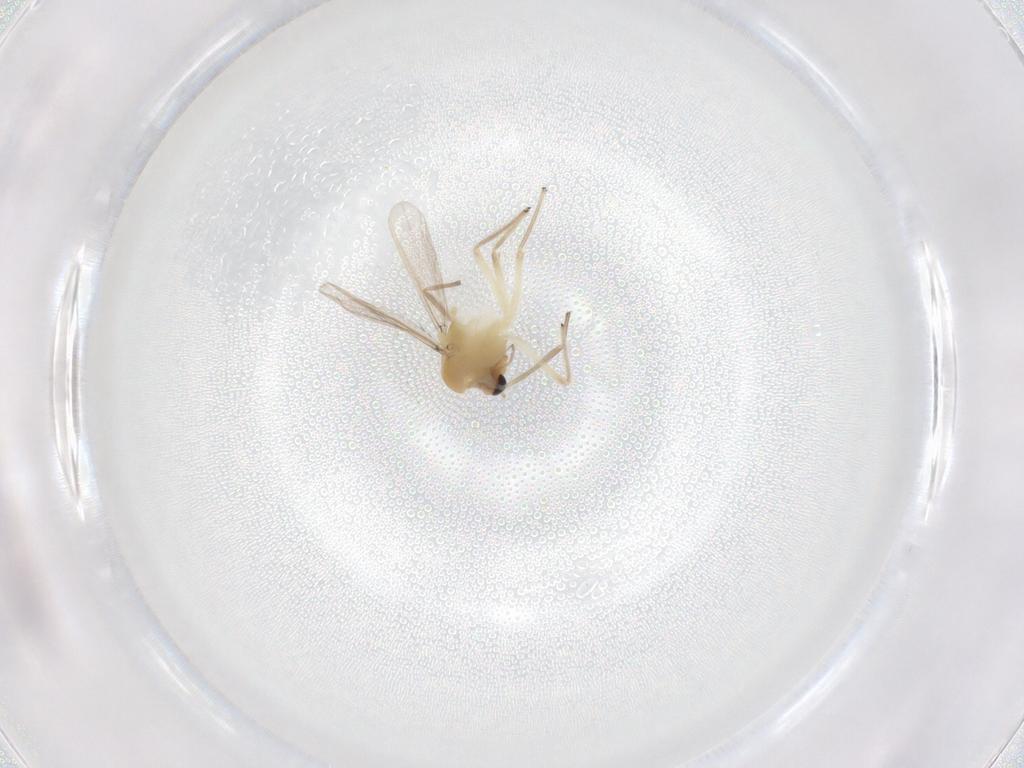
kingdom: Animalia
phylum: Arthropoda
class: Insecta
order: Diptera
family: Chironomidae
